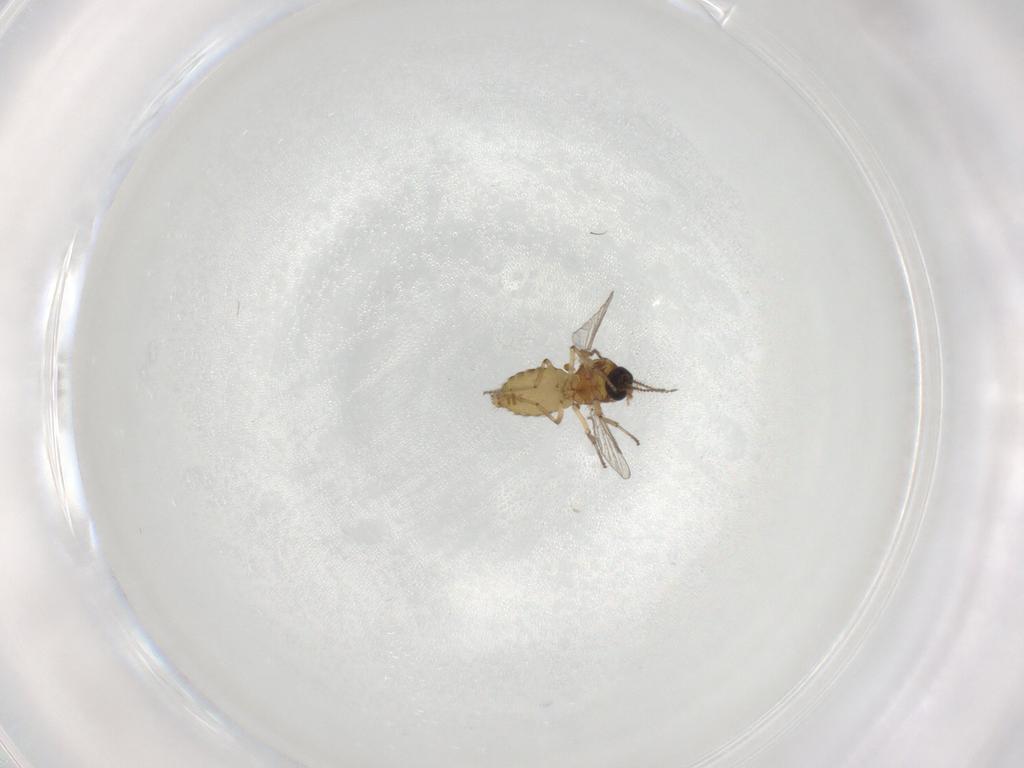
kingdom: Animalia
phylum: Arthropoda
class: Insecta
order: Diptera
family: Ceratopogonidae
